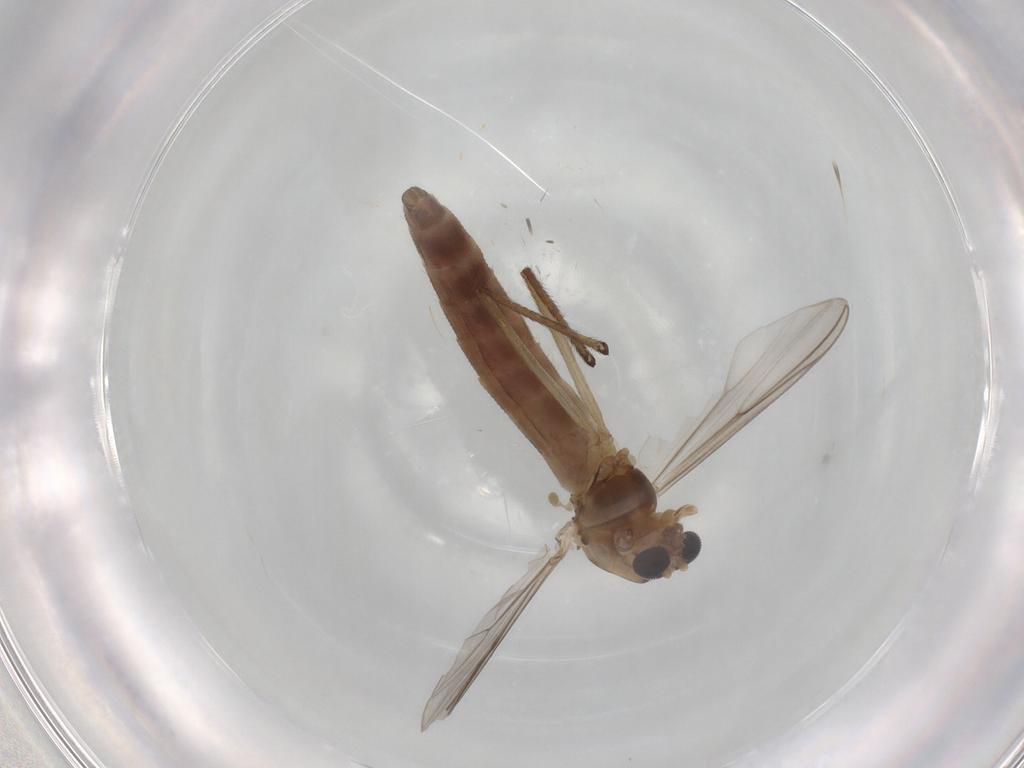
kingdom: Animalia
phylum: Arthropoda
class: Insecta
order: Diptera
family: Chironomidae
